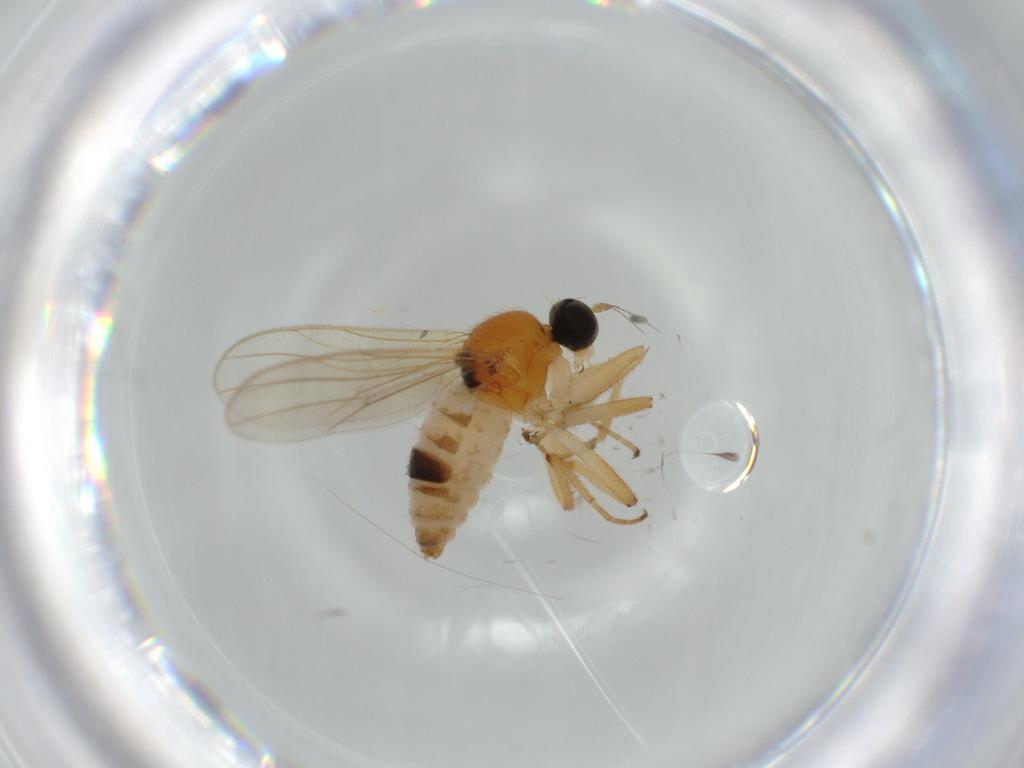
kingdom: Animalia
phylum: Arthropoda
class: Insecta
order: Diptera
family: Hybotidae
